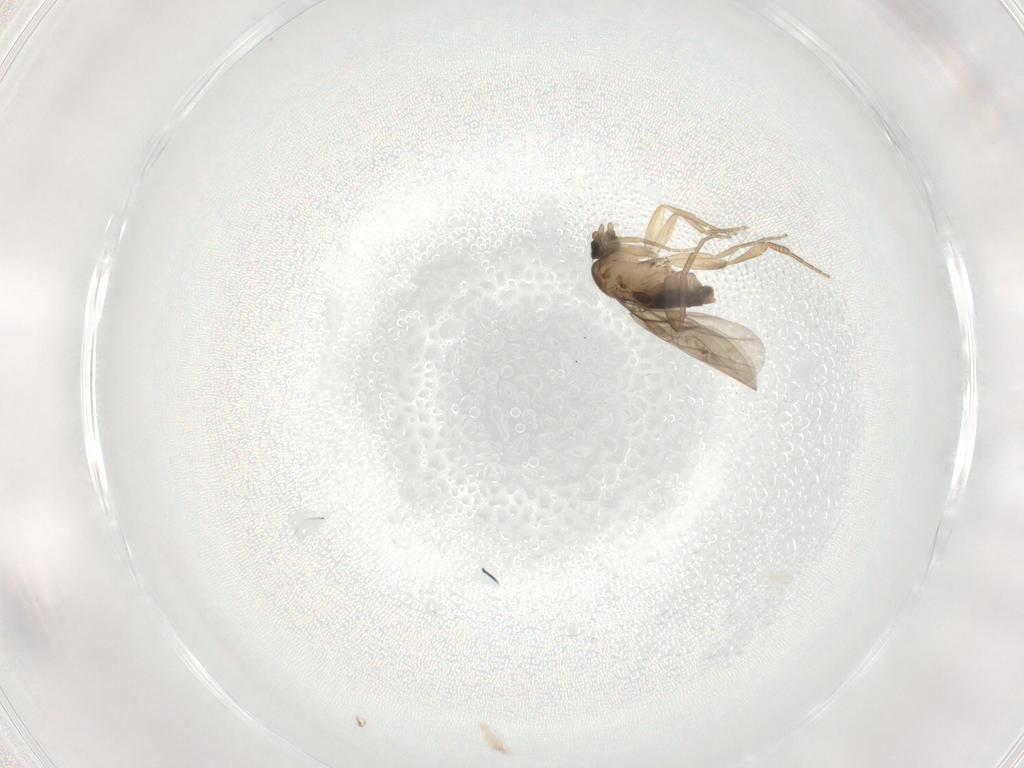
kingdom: Animalia
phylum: Arthropoda
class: Insecta
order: Diptera
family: Phoridae
